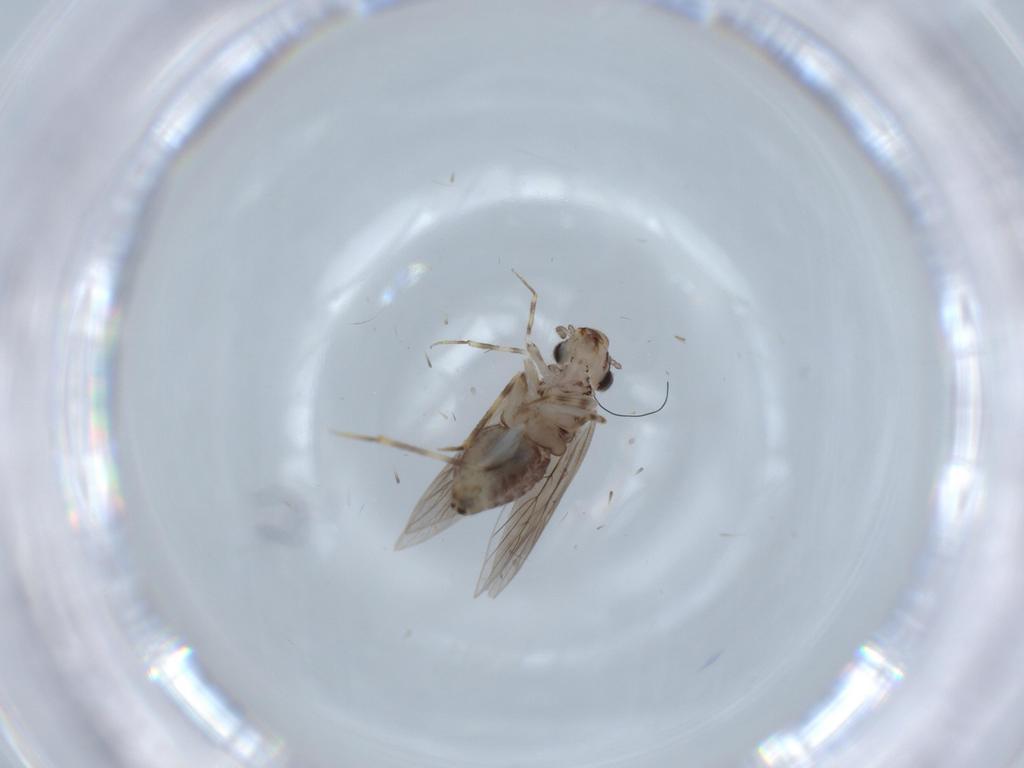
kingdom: Animalia
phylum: Arthropoda
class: Insecta
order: Psocodea
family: Lepidopsocidae
